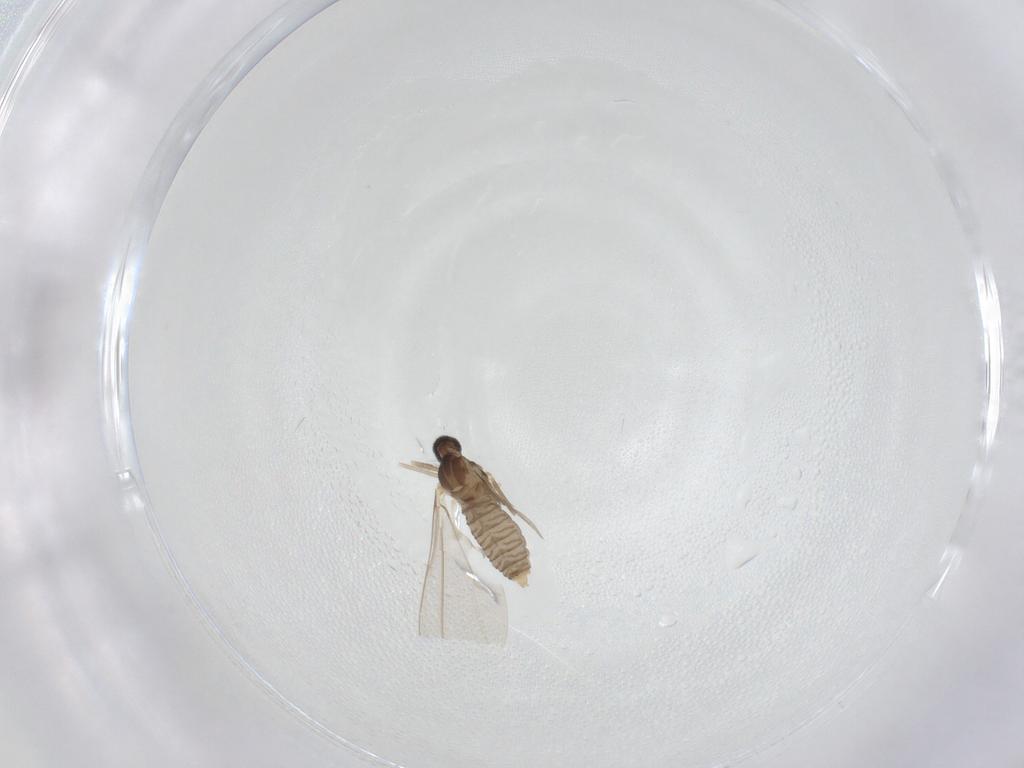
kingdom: Animalia
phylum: Arthropoda
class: Insecta
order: Diptera
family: Cecidomyiidae
